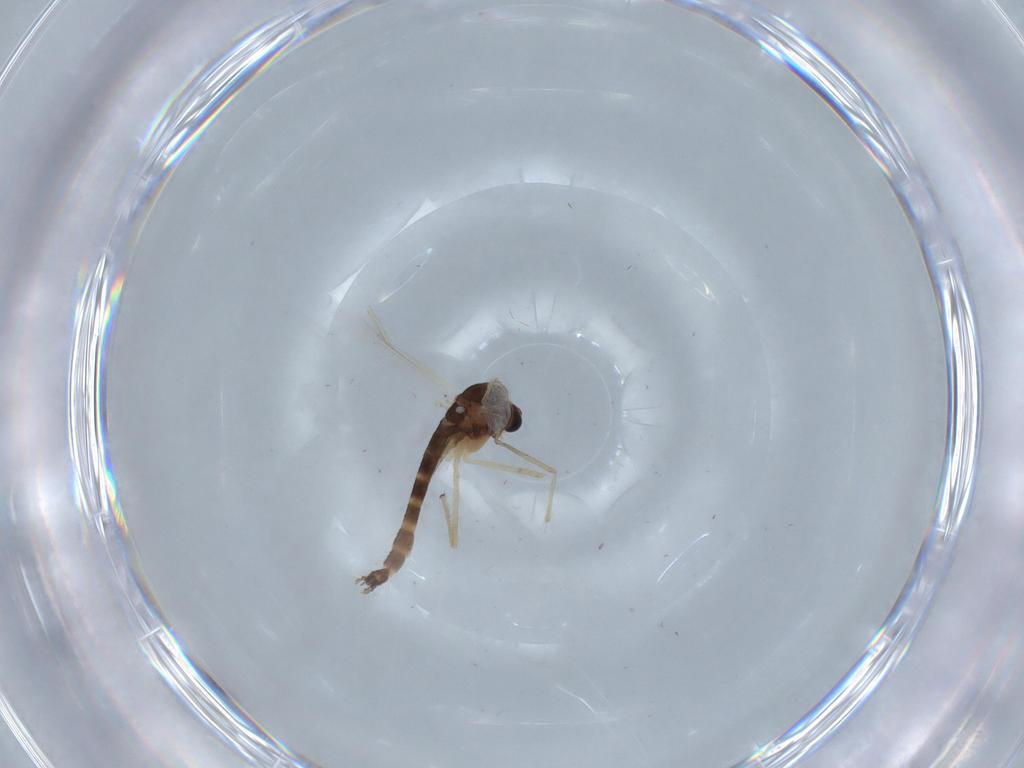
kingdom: Animalia
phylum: Arthropoda
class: Insecta
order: Diptera
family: Chironomidae
